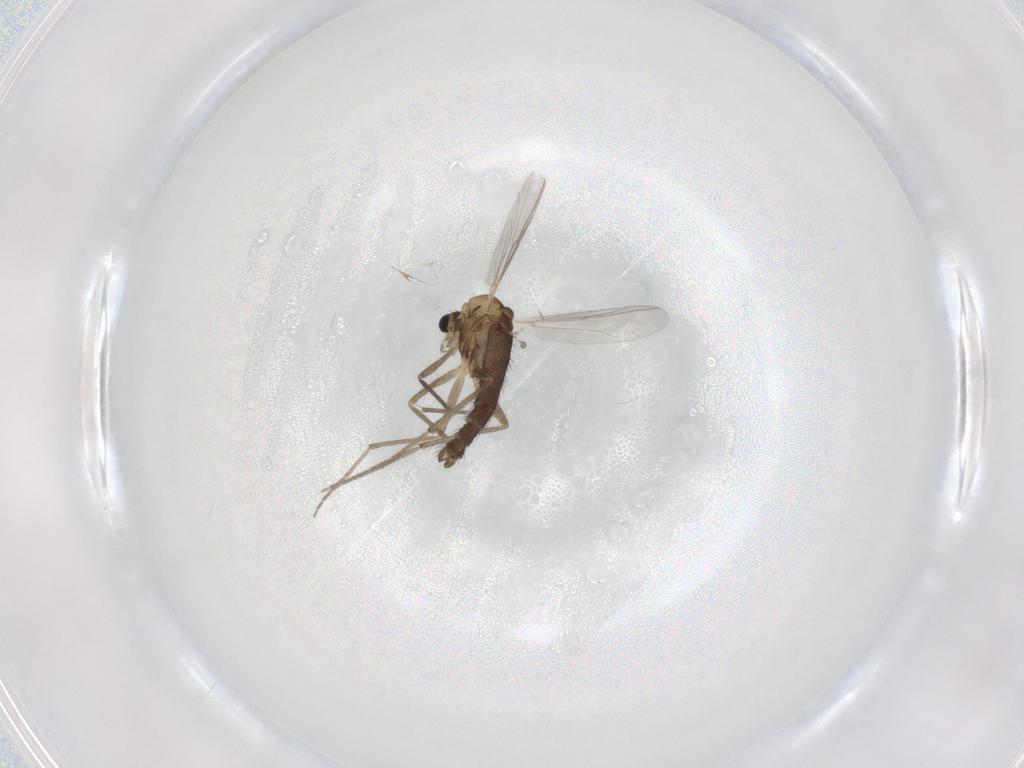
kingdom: Animalia
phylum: Arthropoda
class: Insecta
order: Diptera
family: Chironomidae
